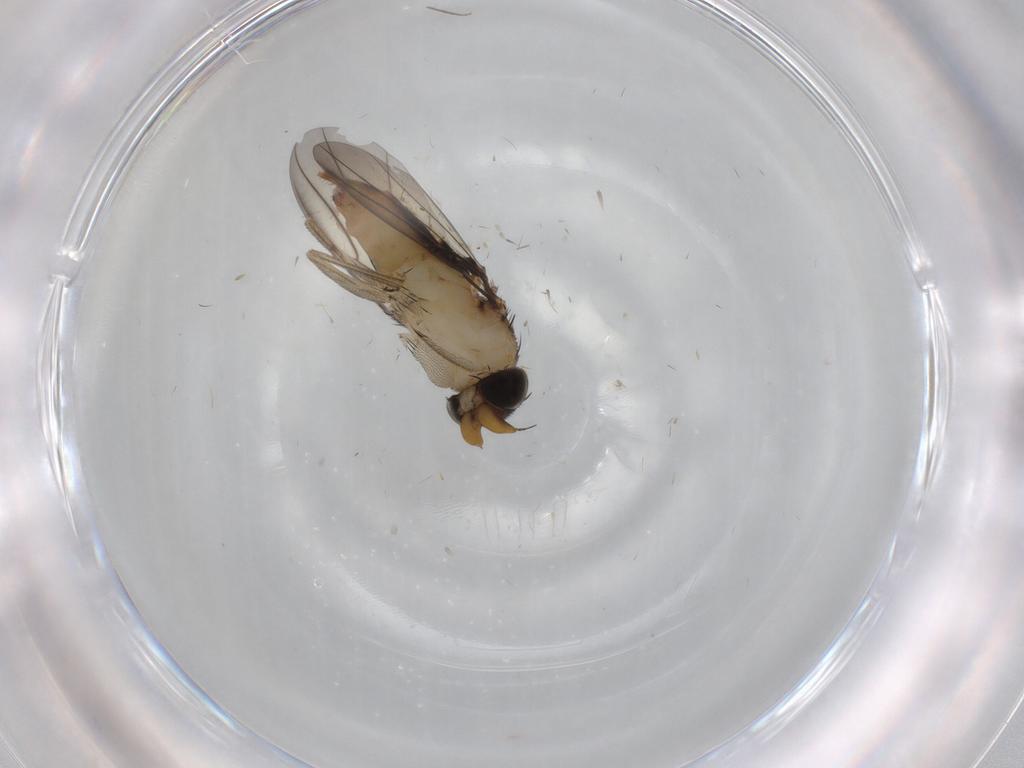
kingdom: Animalia
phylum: Arthropoda
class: Insecta
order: Diptera
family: Phoridae
